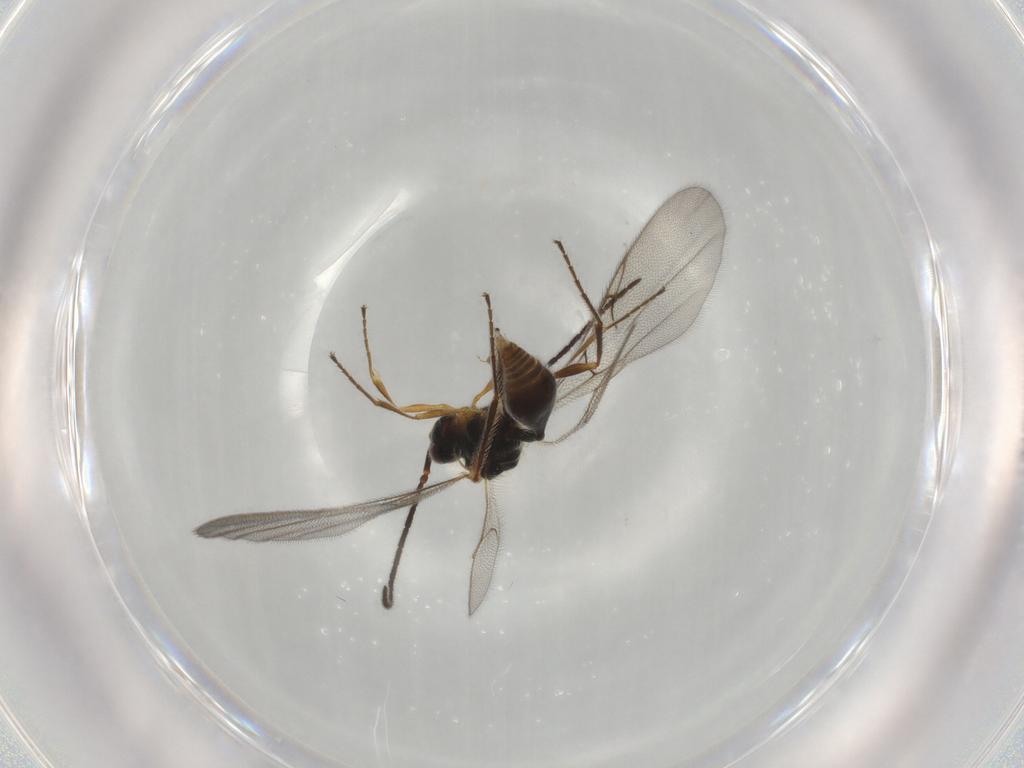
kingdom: Animalia
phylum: Arthropoda
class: Insecta
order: Hymenoptera
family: Diapriidae
